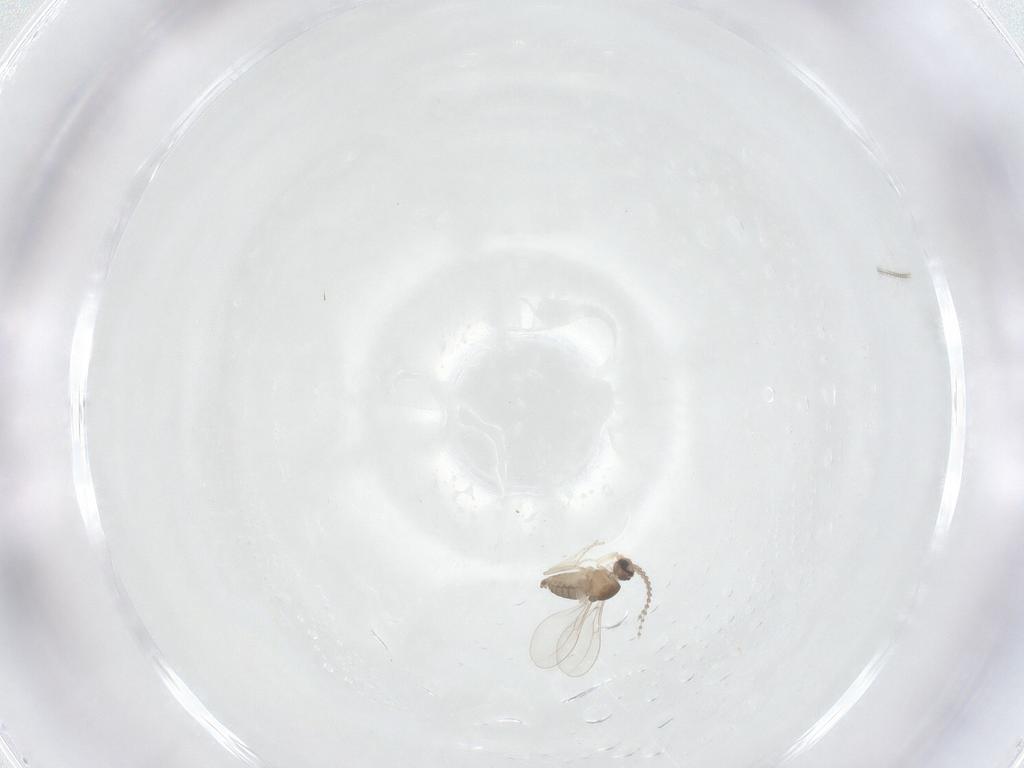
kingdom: Animalia
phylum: Arthropoda
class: Insecta
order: Diptera
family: Cecidomyiidae
